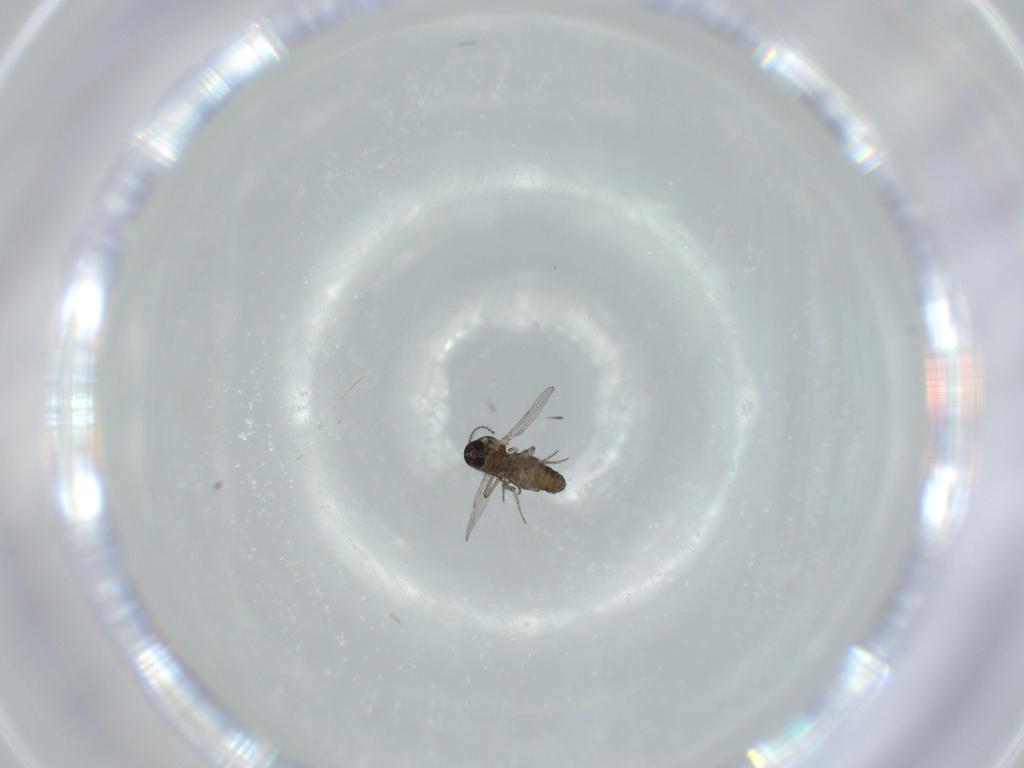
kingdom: Animalia
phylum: Arthropoda
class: Insecta
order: Diptera
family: Ceratopogonidae
